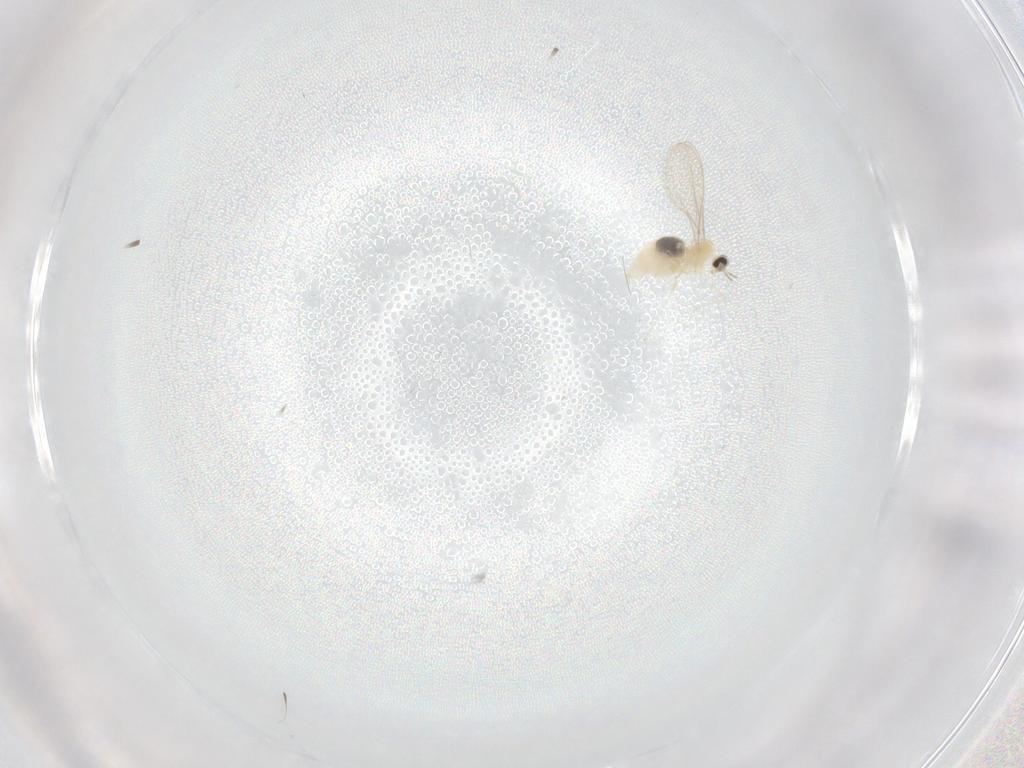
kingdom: Animalia
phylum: Arthropoda
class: Insecta
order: Diptera
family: Cecidomyiidae
